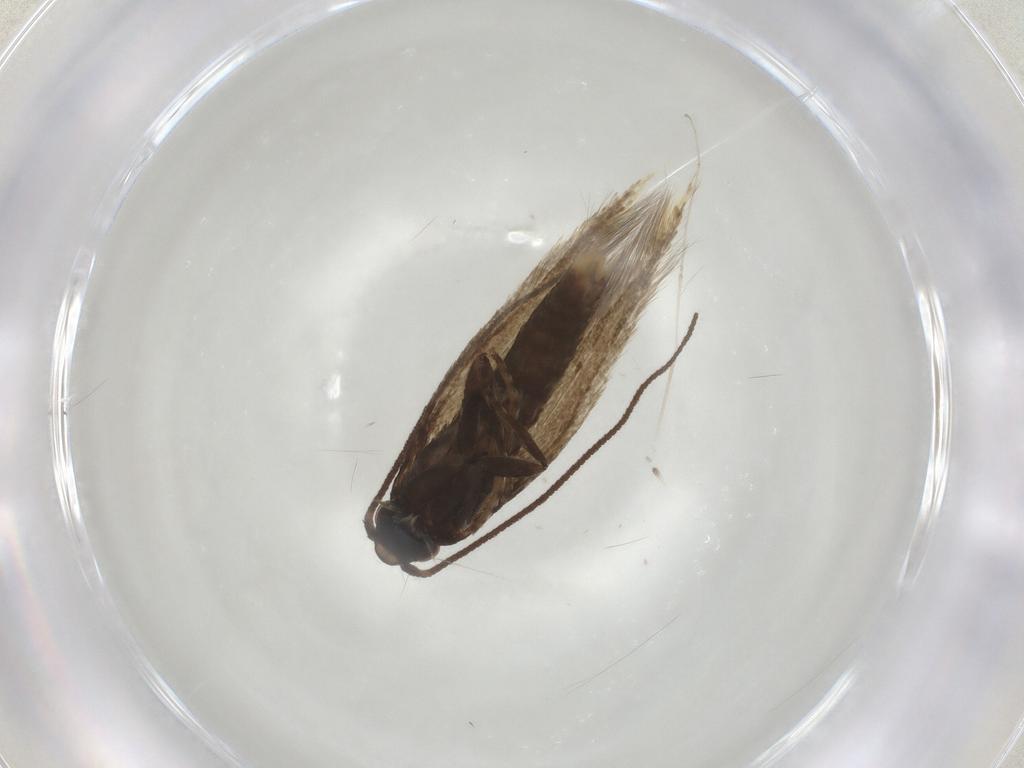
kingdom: Animalia
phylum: Arthropoda
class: Insecta
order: Lepidoptera
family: Tineidae
